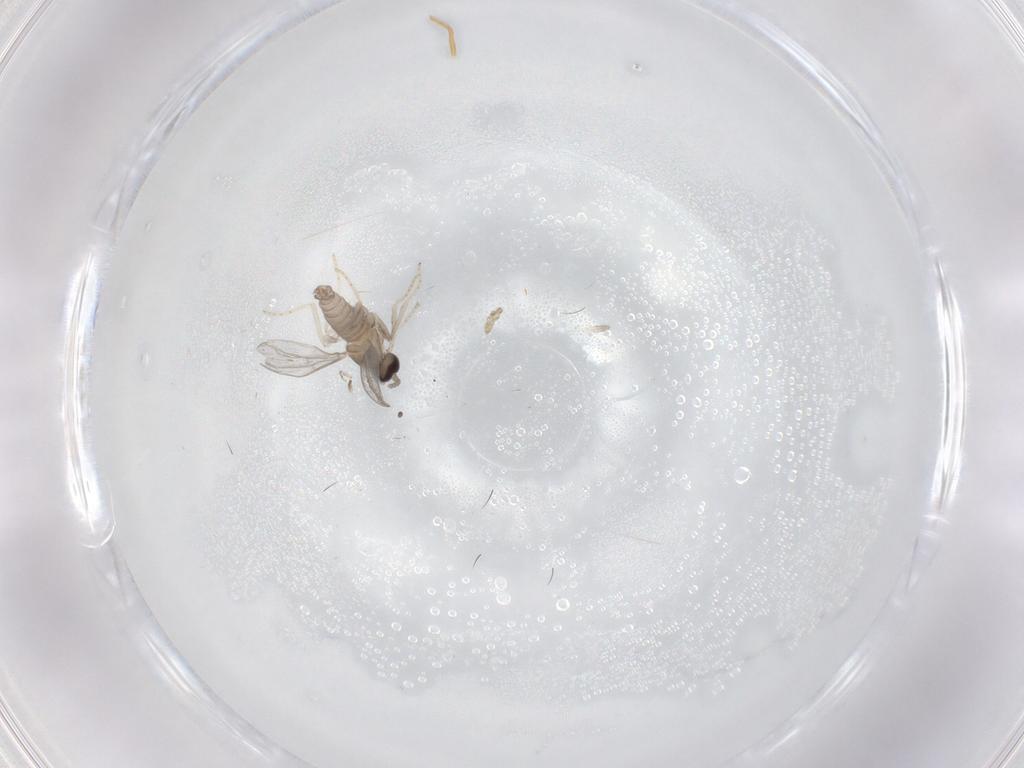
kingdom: Animalia
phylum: Arthropoda
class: Insecta
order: Diptera
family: Cecidomyiidae
